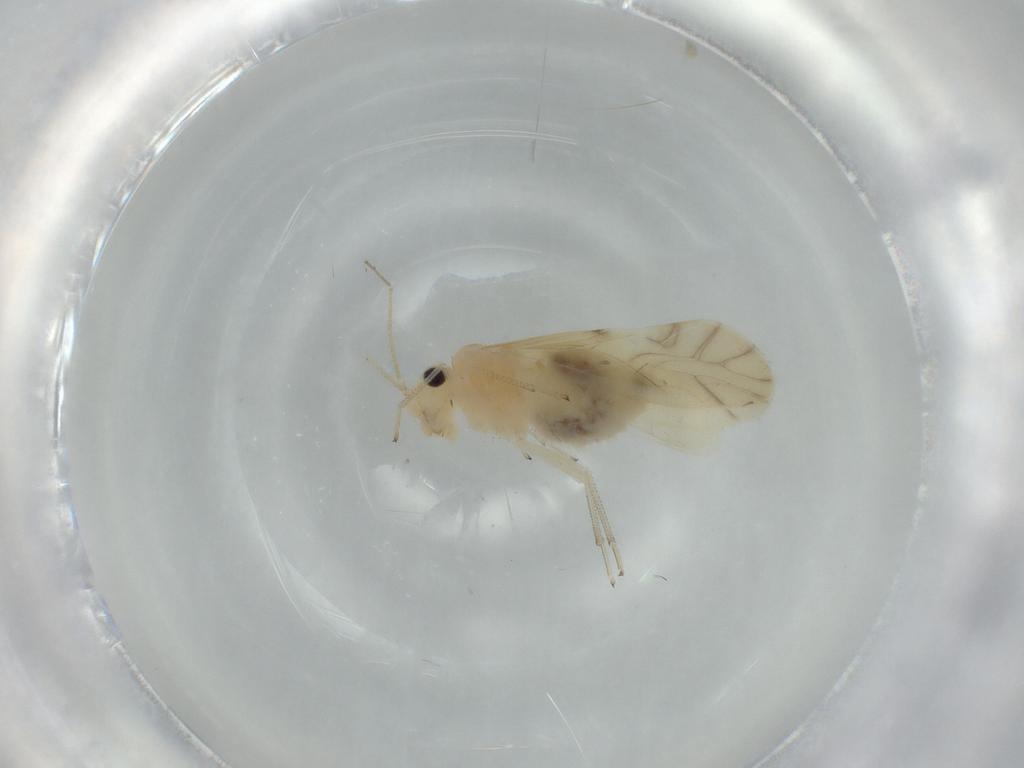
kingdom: Animalia
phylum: Arthropoda
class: Insecta
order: Psocodea
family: Caeciliusidae
